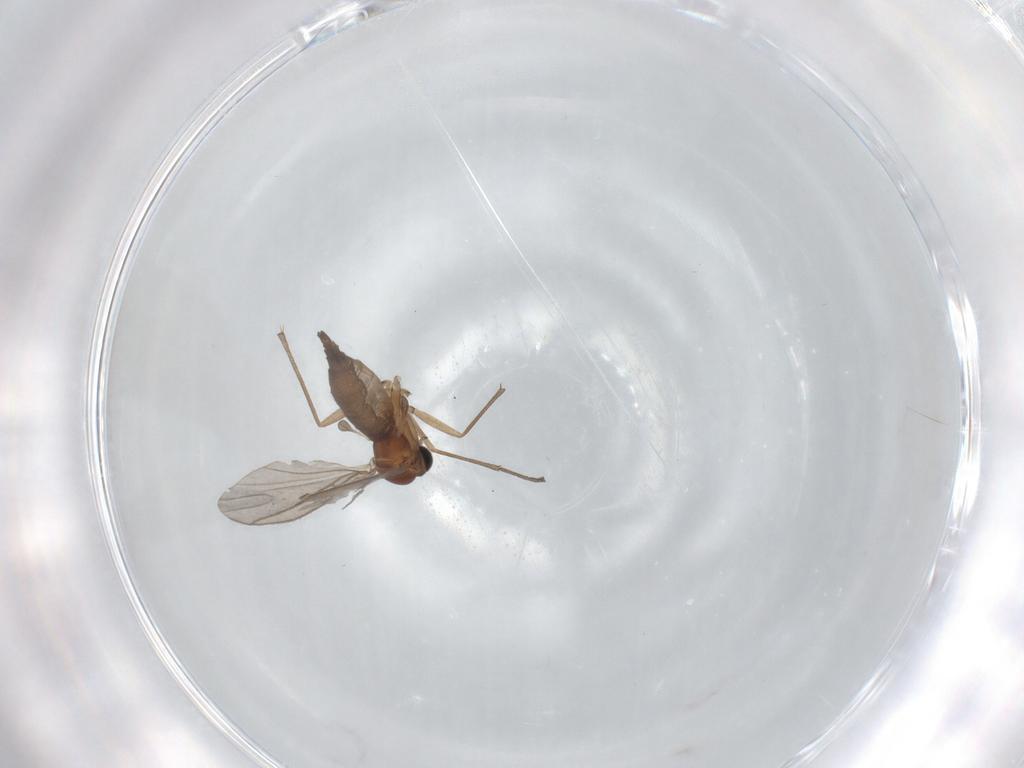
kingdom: Animalia
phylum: Arthropoda
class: Insecta
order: Diptera
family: Sciaridae
